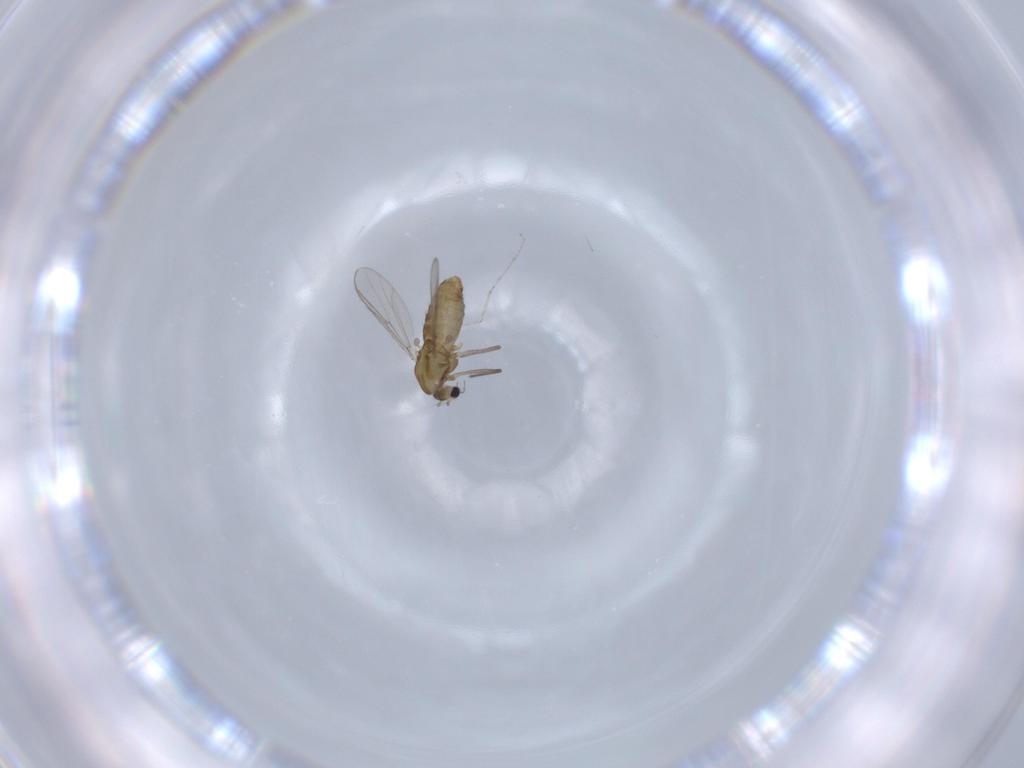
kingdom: Animalia
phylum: Arthropoda
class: Insecta
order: Diptera
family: Chironomidae
